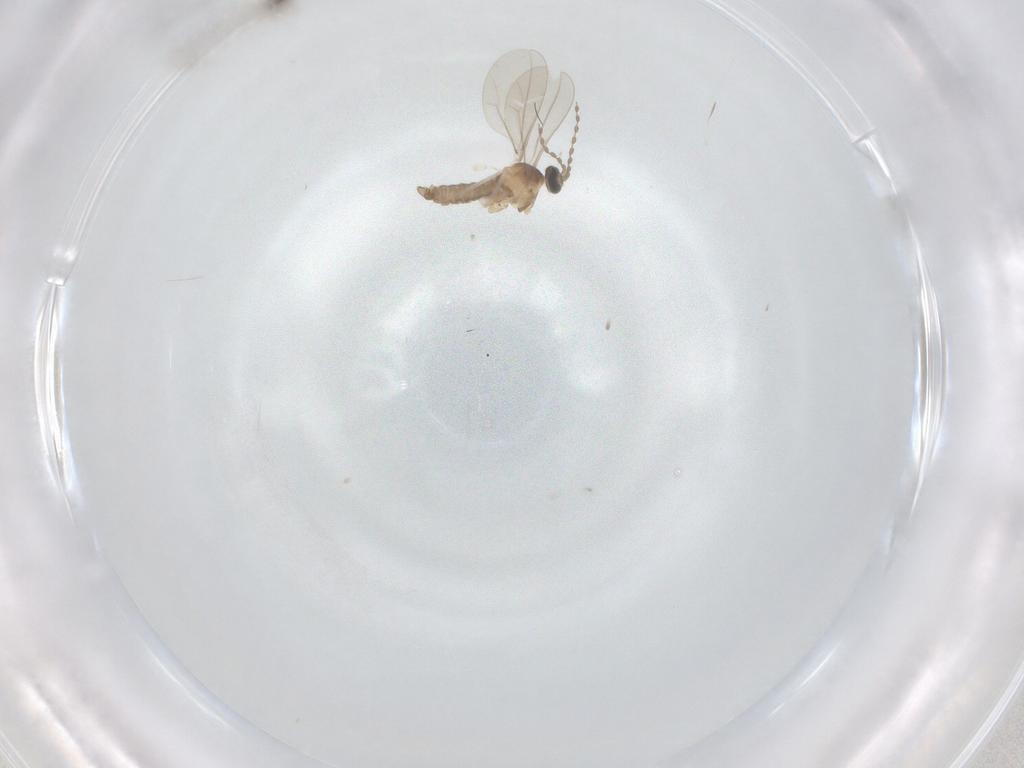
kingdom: Animalia
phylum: Arthropoda
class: Insecta
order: Diptera
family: Cecidomyiidae
